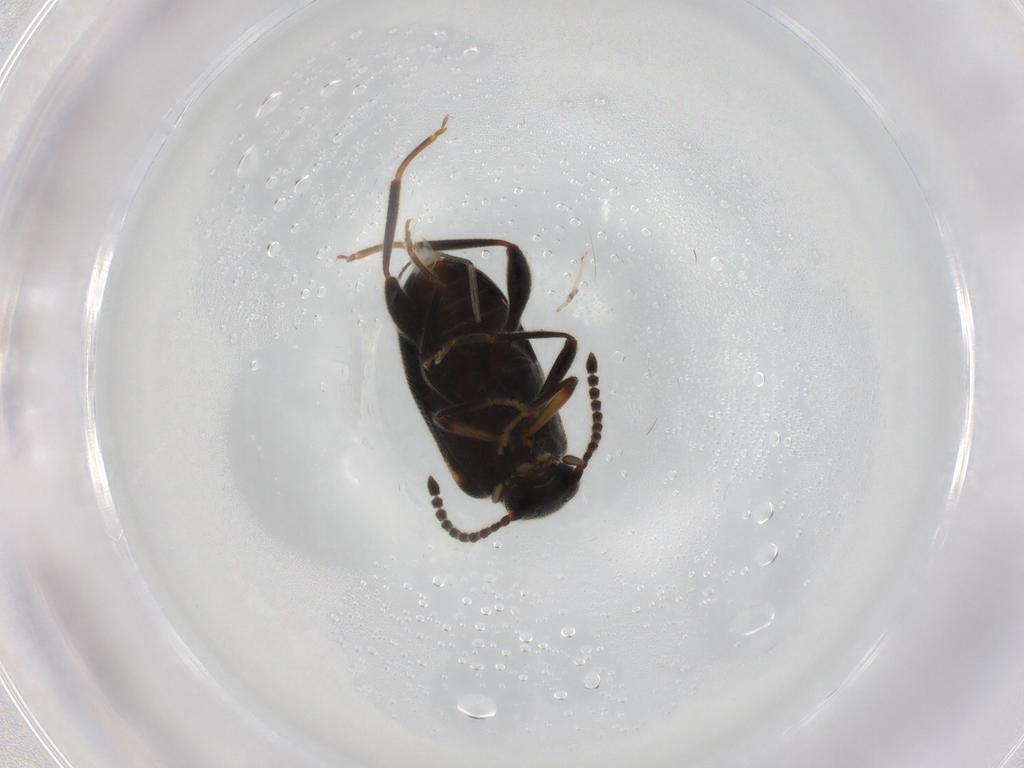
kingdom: Animalia
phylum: Arthropoda
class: Insecta
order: Coleoptera
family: Aderidae
